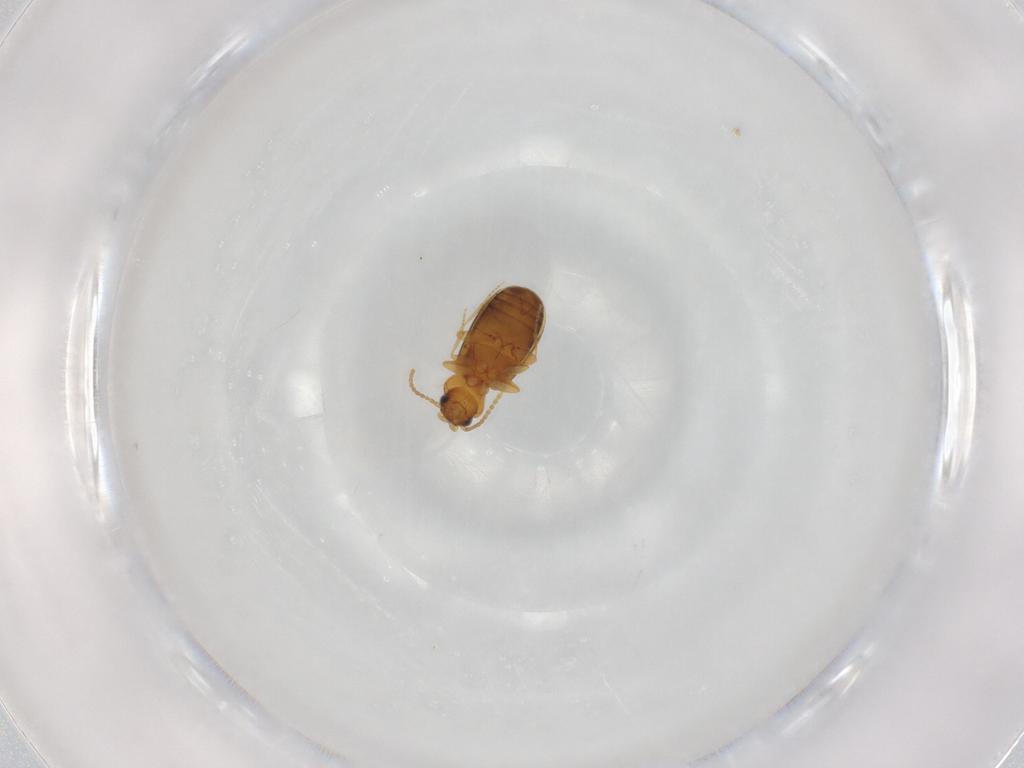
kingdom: Animalia
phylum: Arthropoda
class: Insecta
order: Coleoptera
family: Carabidae
